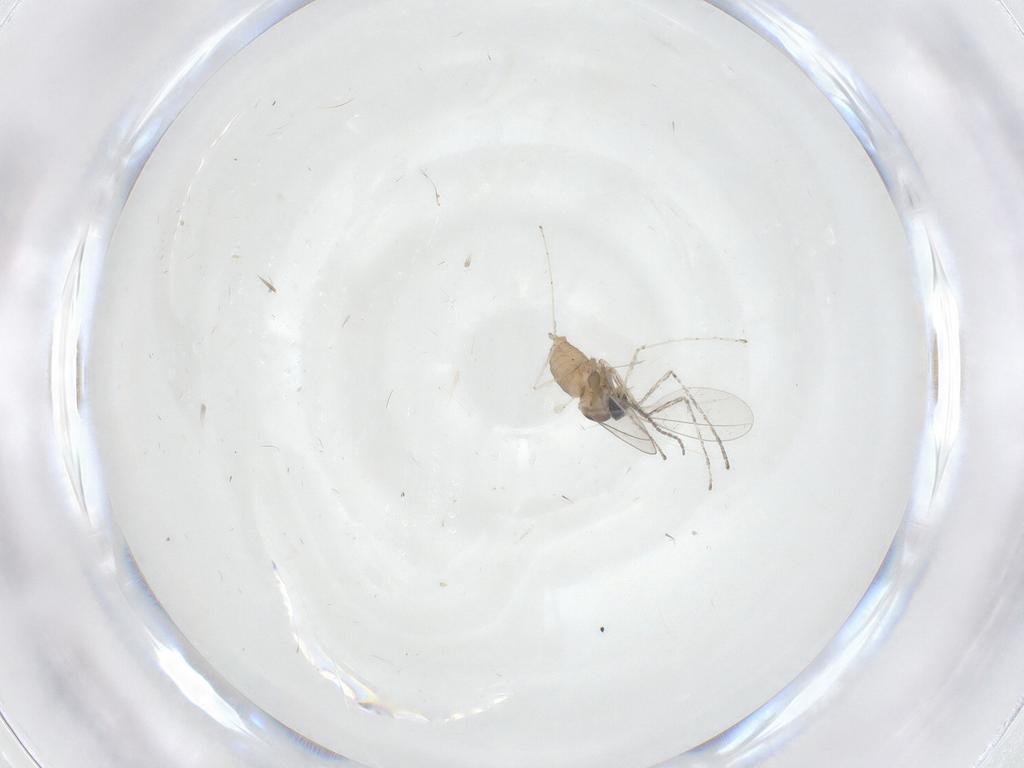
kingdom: Animalia
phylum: Arthropoda
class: Insecta
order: Diptera
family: Cecidomyiidae
